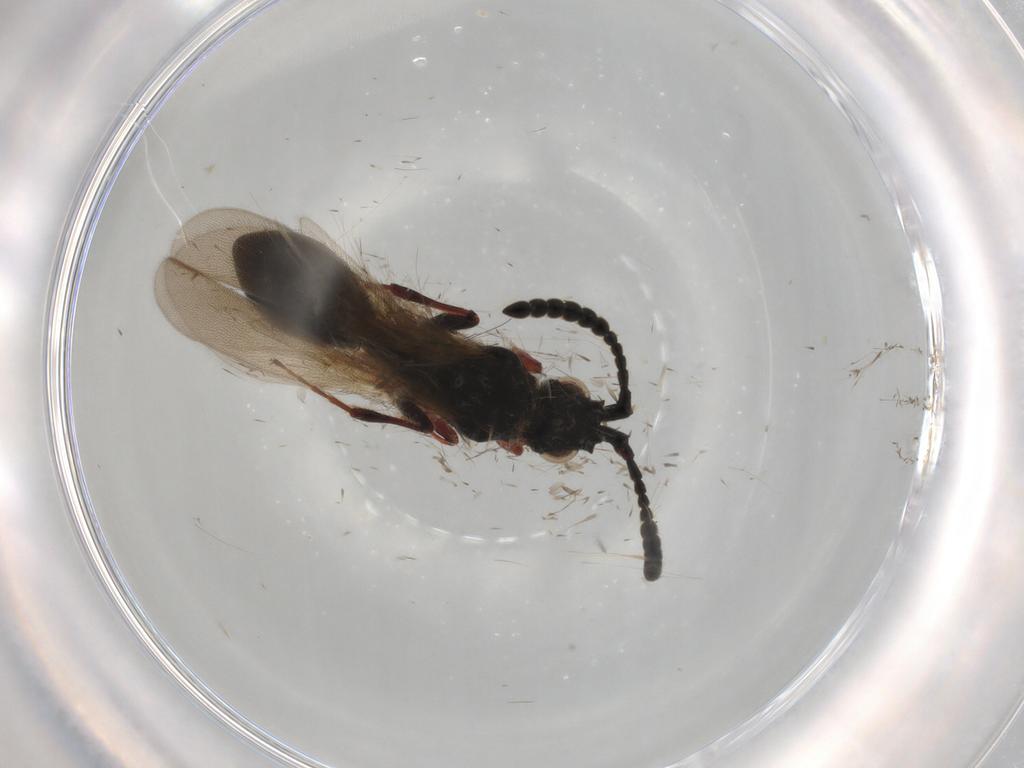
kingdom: Animalia
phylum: Arthropoda
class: Insecta
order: Hymenoptera
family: Diapriidae
